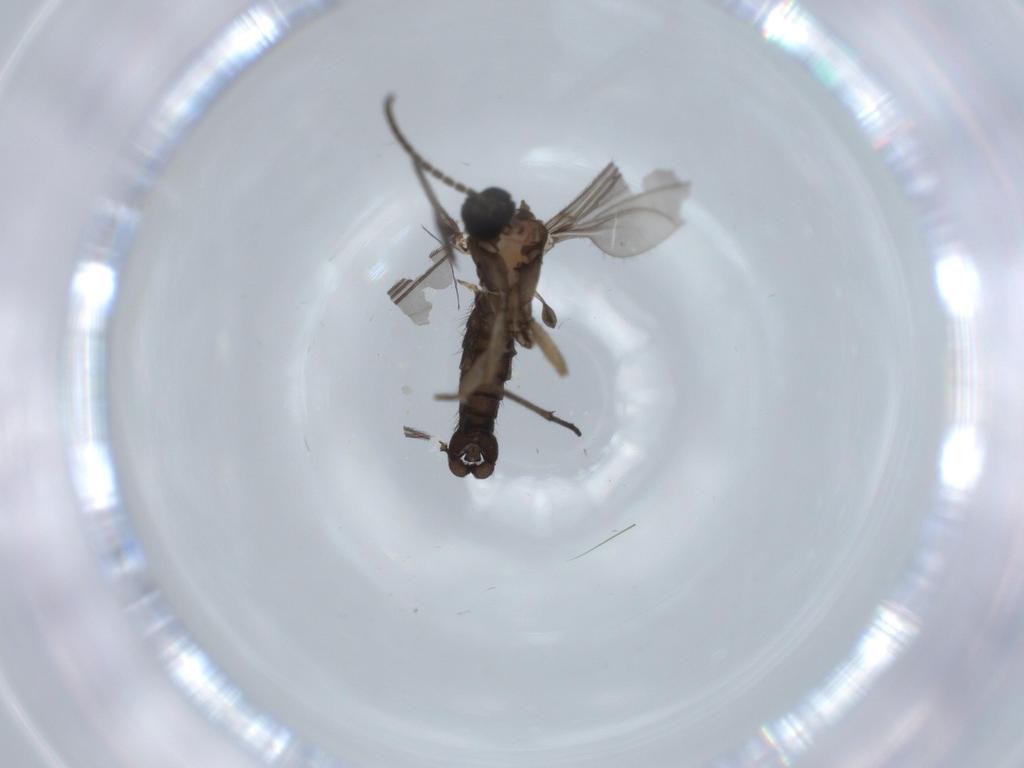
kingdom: Animalia
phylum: Arthropoda
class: Insecta
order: Diptera
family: Sciaridae
